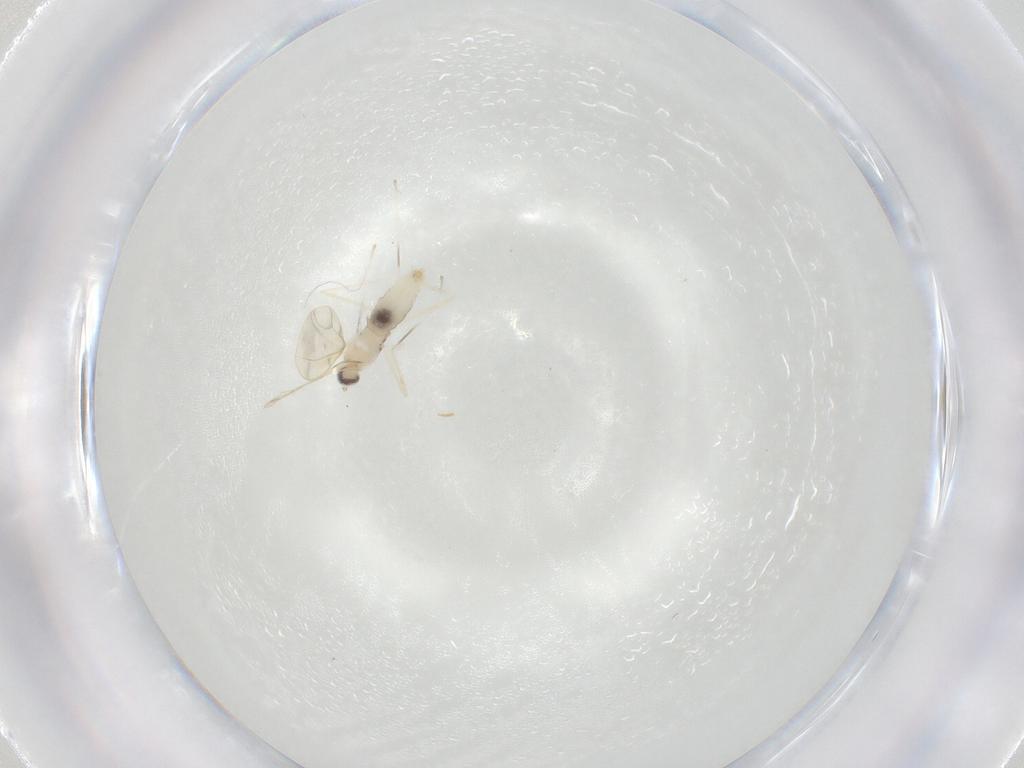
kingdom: Animalia
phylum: Arthropoda
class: Insecta
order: Diptera
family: Cecidomyiidae
